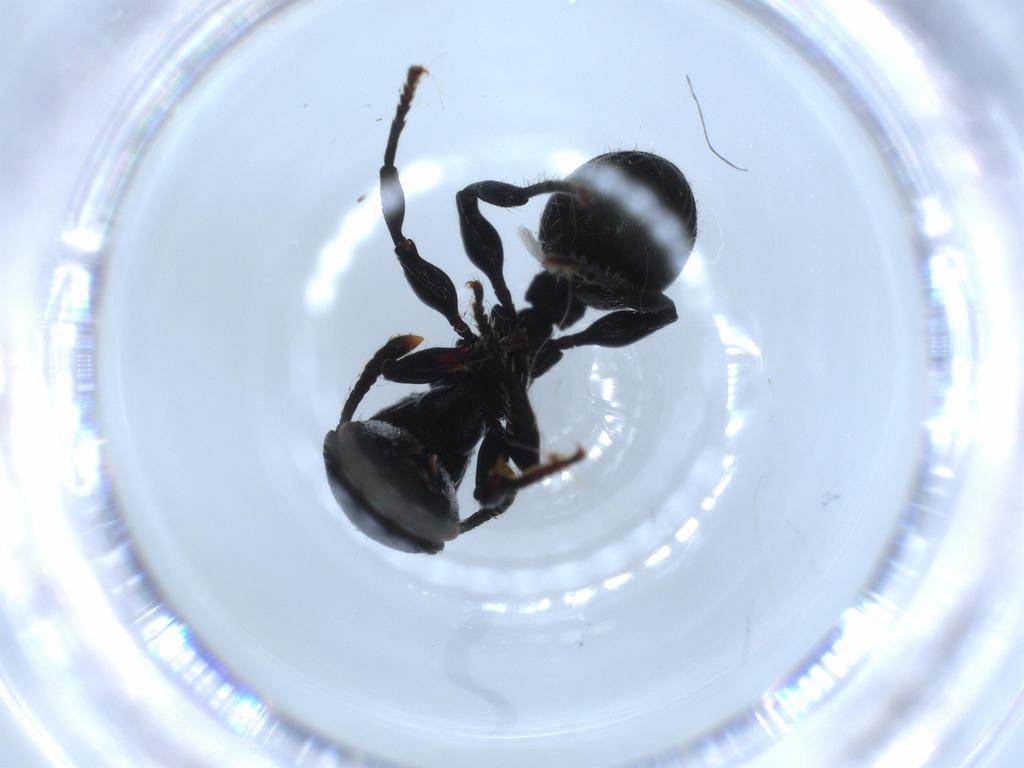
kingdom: Animalia
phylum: Arthropoda
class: Insecta
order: Hymenoptera
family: Formicidae
